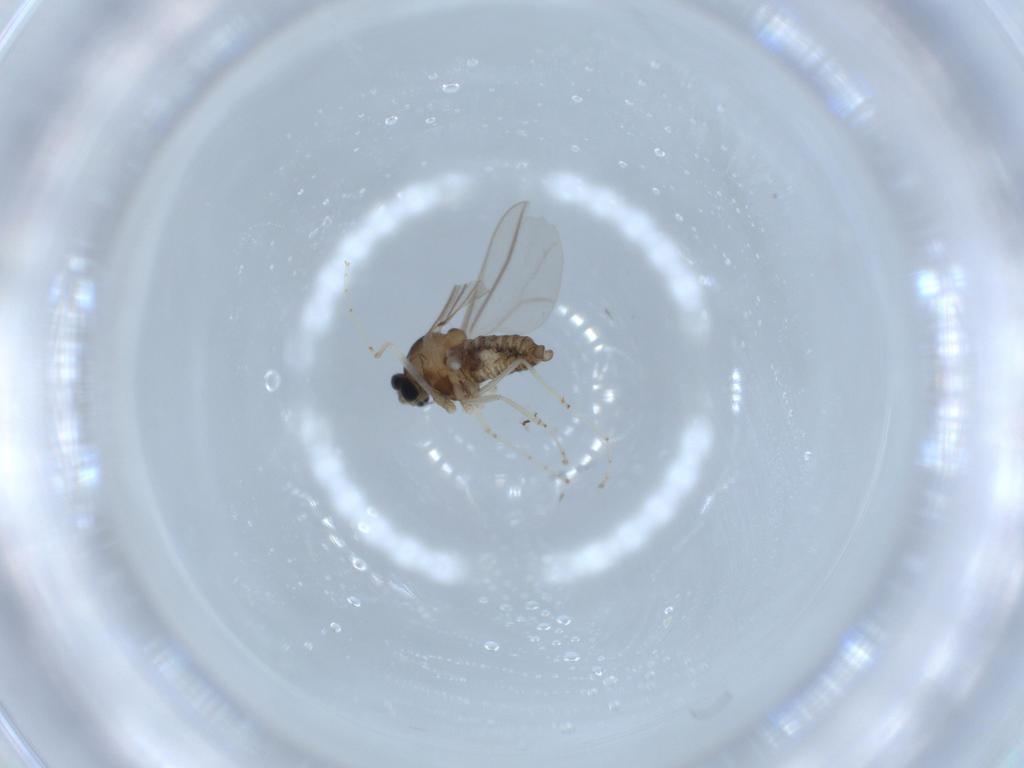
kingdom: Animalia
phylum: Arthropoda
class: Insecta
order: Diptera
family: Cecidomyiidae
